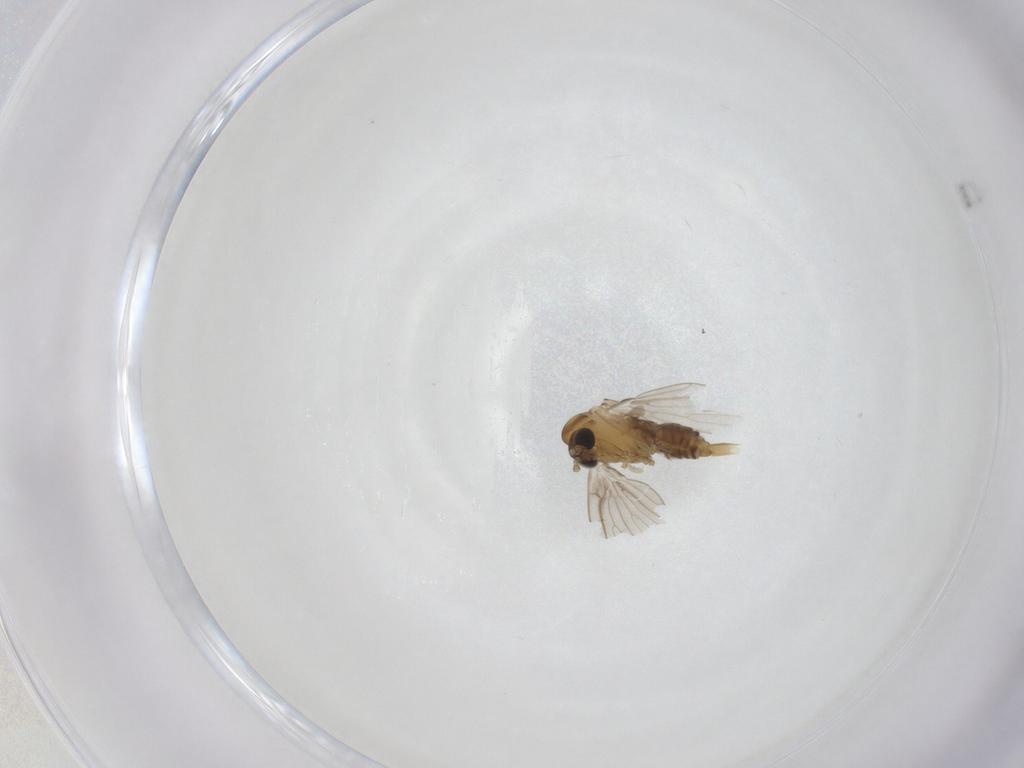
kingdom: Animalia
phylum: Arthropoda
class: Insecta
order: Diptera
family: Psychodidae
